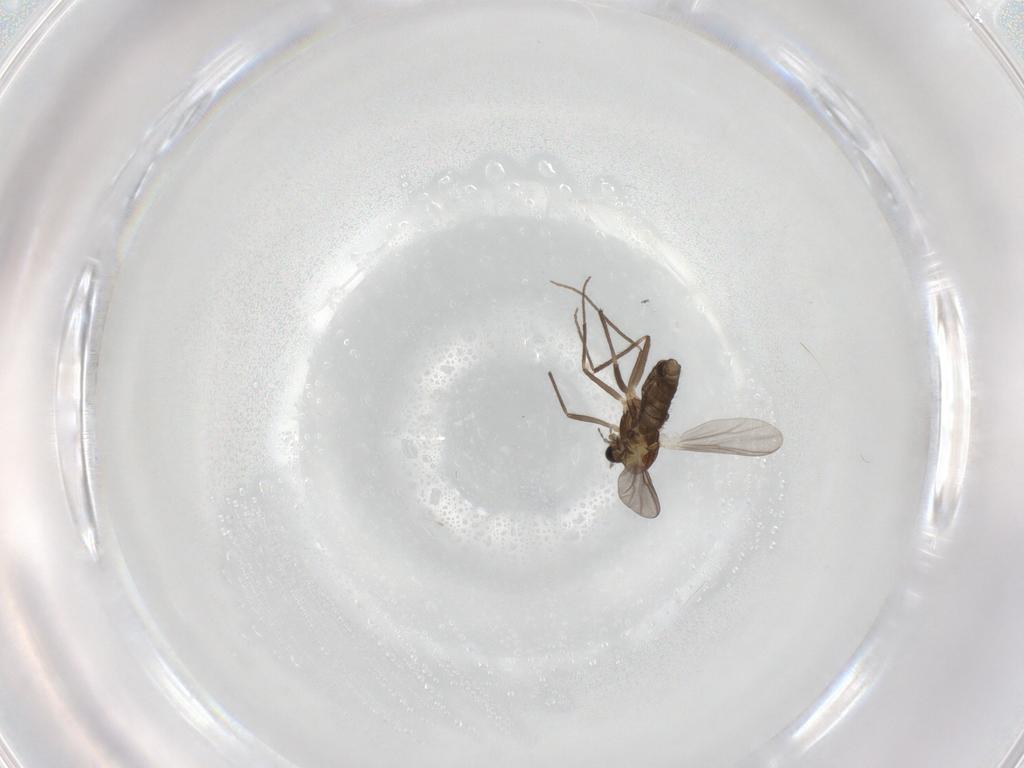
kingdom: Animalia
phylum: Arthropoda
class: Insecta
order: Diptera
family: Chironomidae
